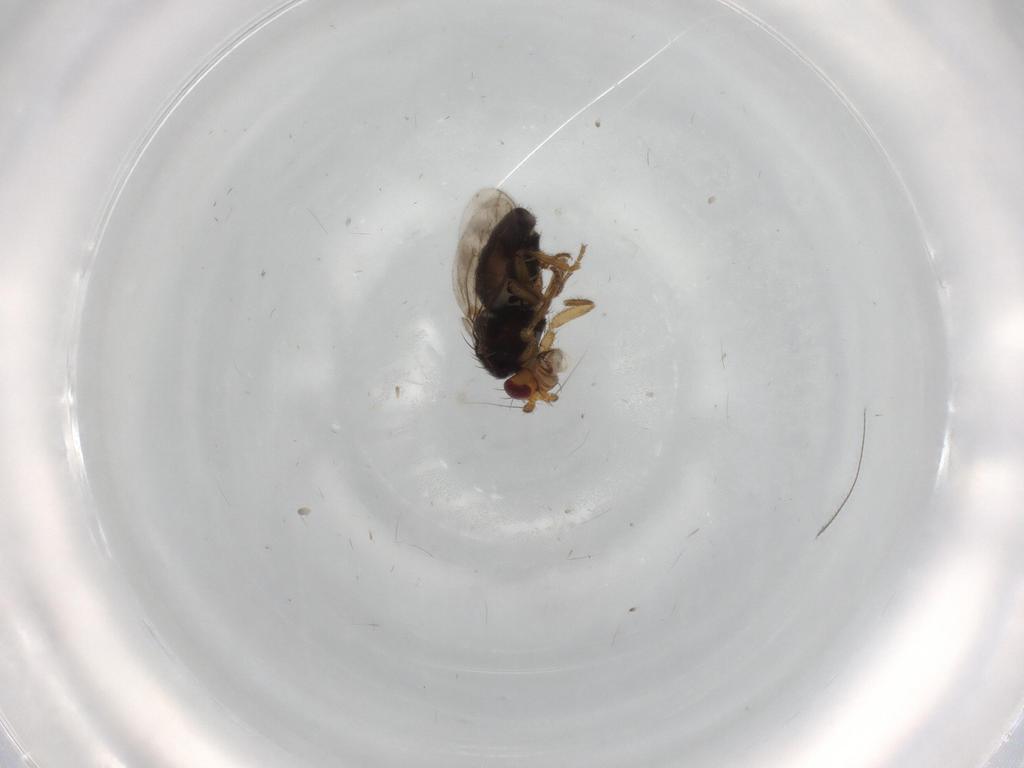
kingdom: Animalia
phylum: Arthropoda
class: Insecta
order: Diptera
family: Sphaeroceridae
